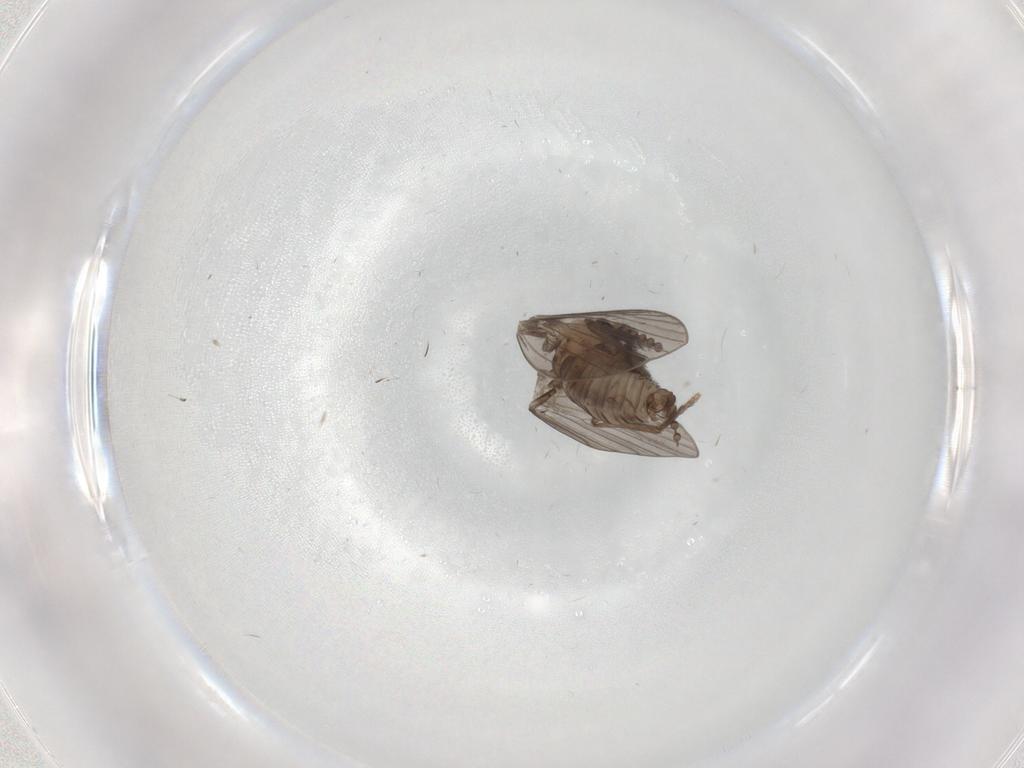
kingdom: Animalia
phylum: Arthropoda
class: Insecta
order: Diptera
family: Psychodidae
